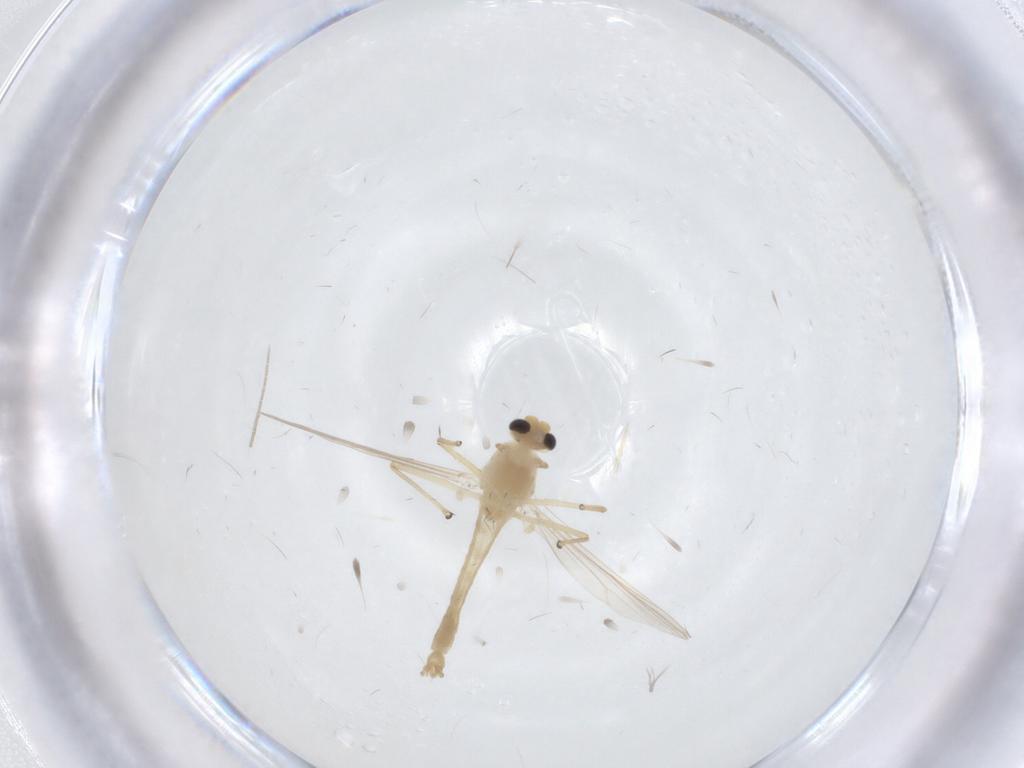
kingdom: Animalia
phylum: Arthropoda
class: Insecta
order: Diptera
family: Chironomidae
